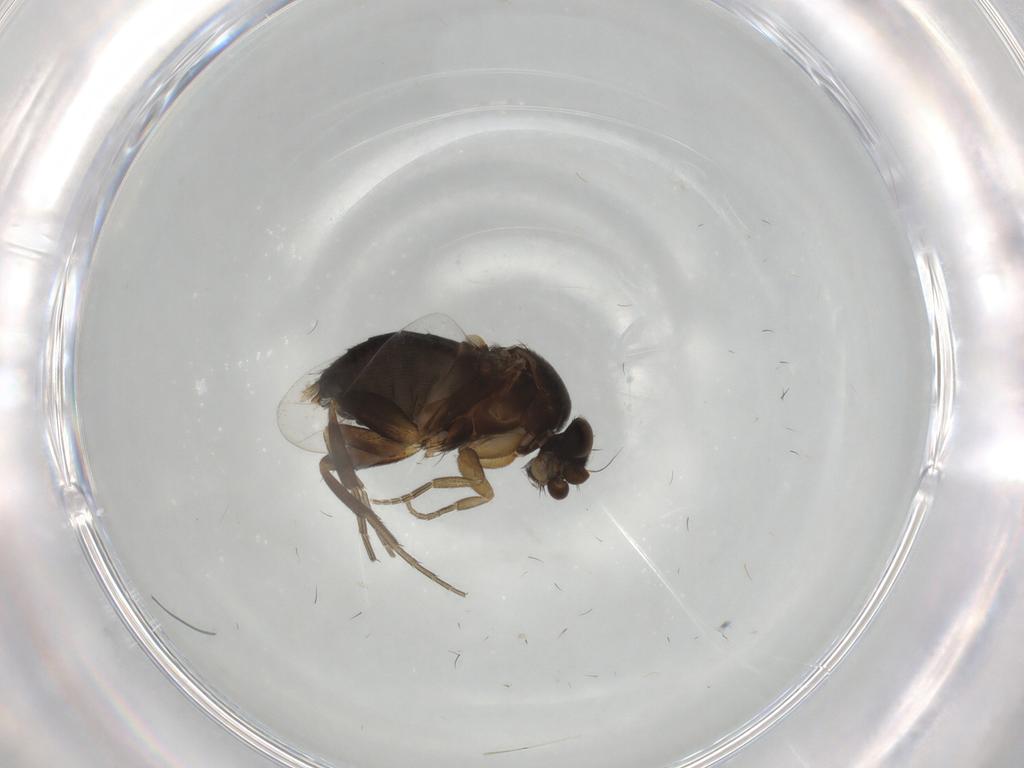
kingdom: Animalia
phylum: Arthropoda
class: Insecta
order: Diptera
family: Phoridae
